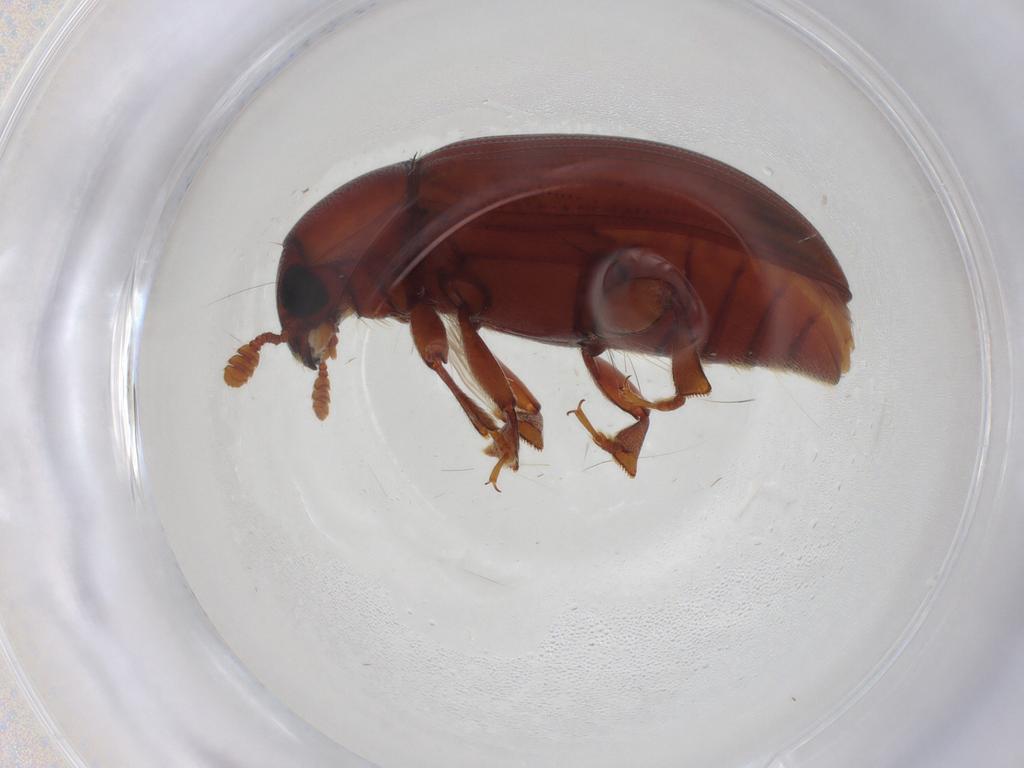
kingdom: Animalia
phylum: Arthropoda
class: Insecta
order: Coleoptera
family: Erotylidae
